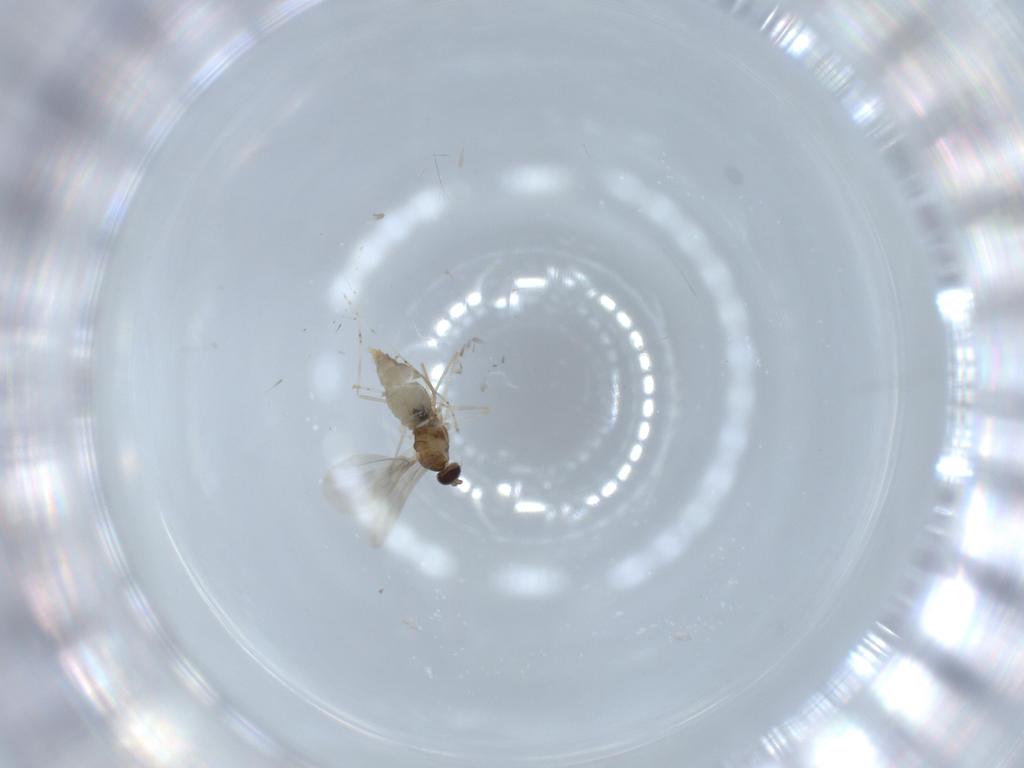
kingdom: Animalia
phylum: Arthropoda
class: Insecta
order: Diptera
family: Cecidomyiidae
